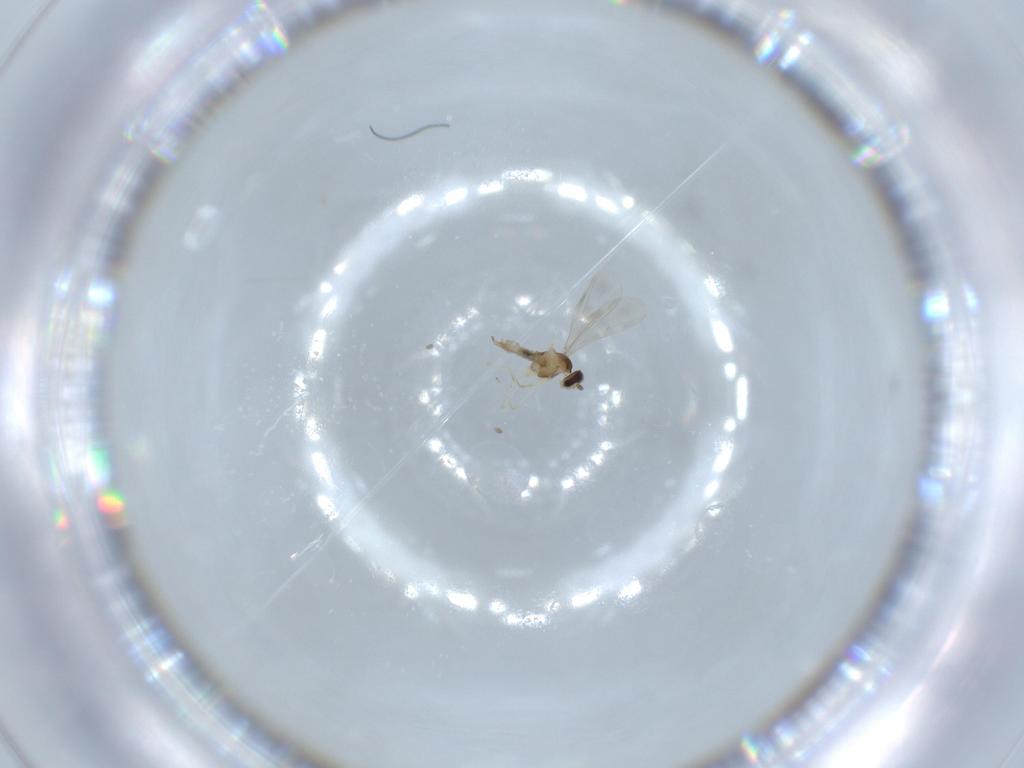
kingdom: Animalia
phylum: Arthropoda
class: Insecta
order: Diptera
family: Cecidomyiidae
